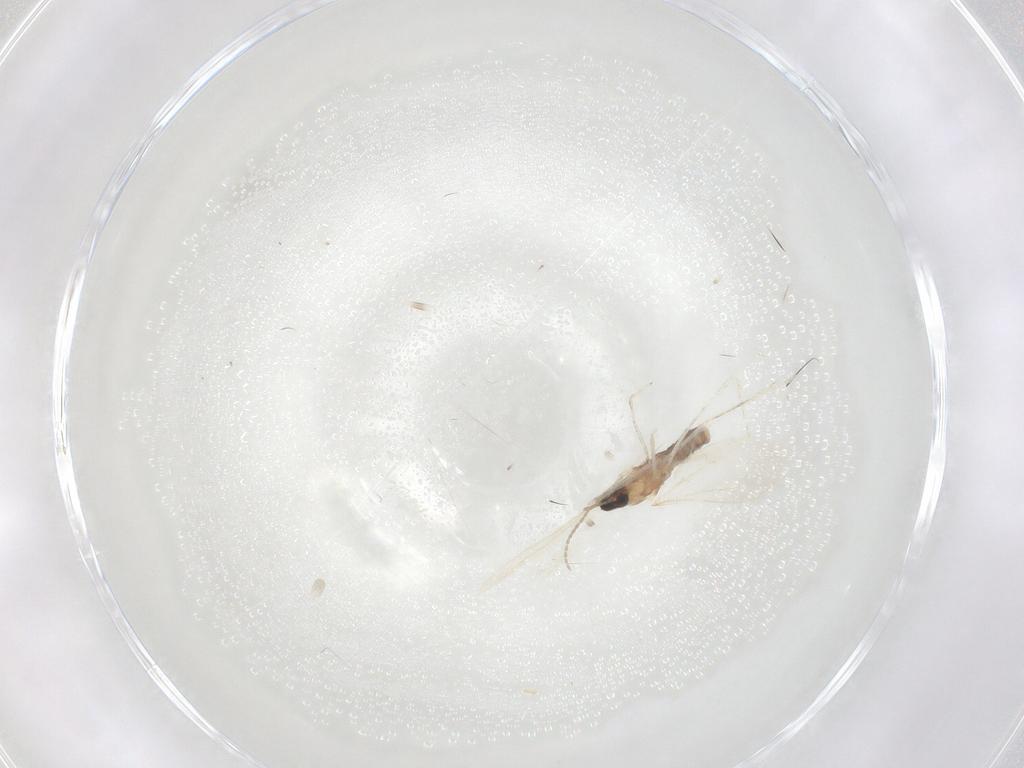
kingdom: Animalia
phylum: Arthropoda
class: Insecta
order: Diptera
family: Cecidomyiidae
